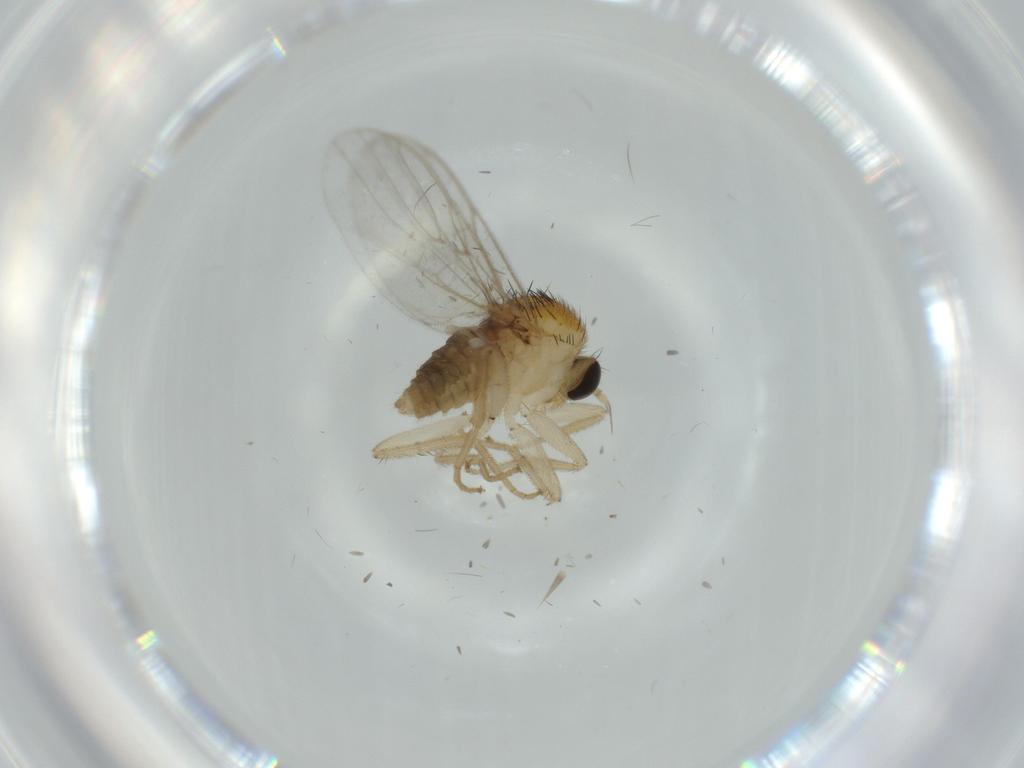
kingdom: Animalia
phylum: Arthropoda
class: Insecta
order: Diptera
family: Hybotidae
